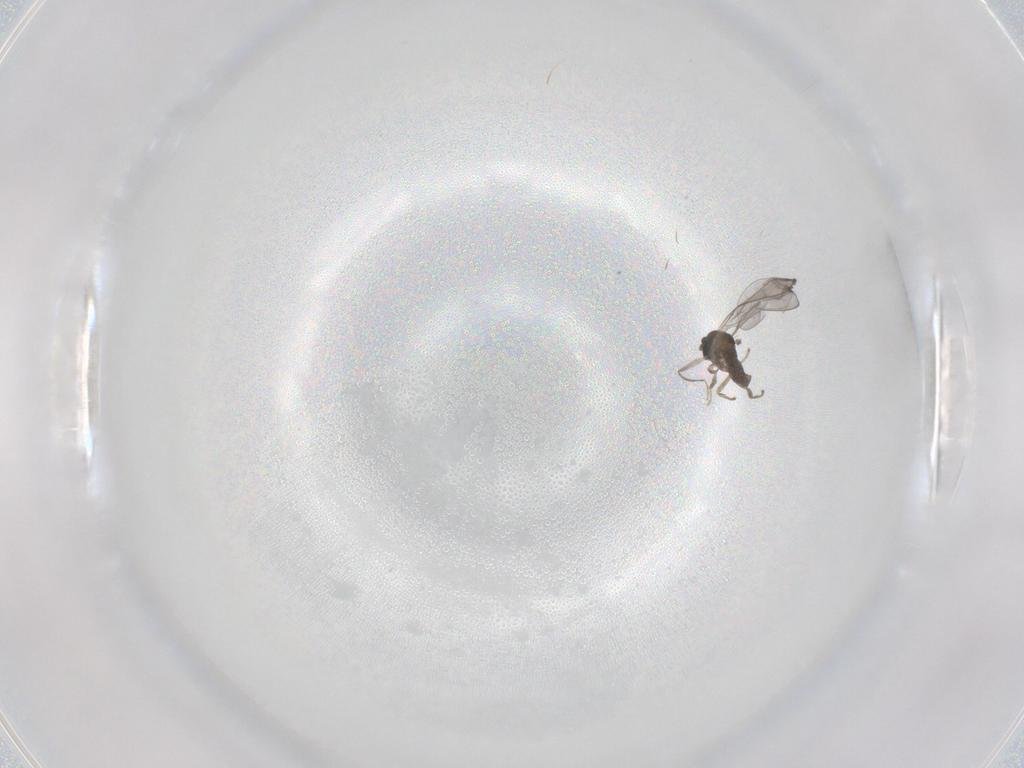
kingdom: Animalia
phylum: Arthropoda
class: Insecta
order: Diptera
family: Cecidomyiidae
